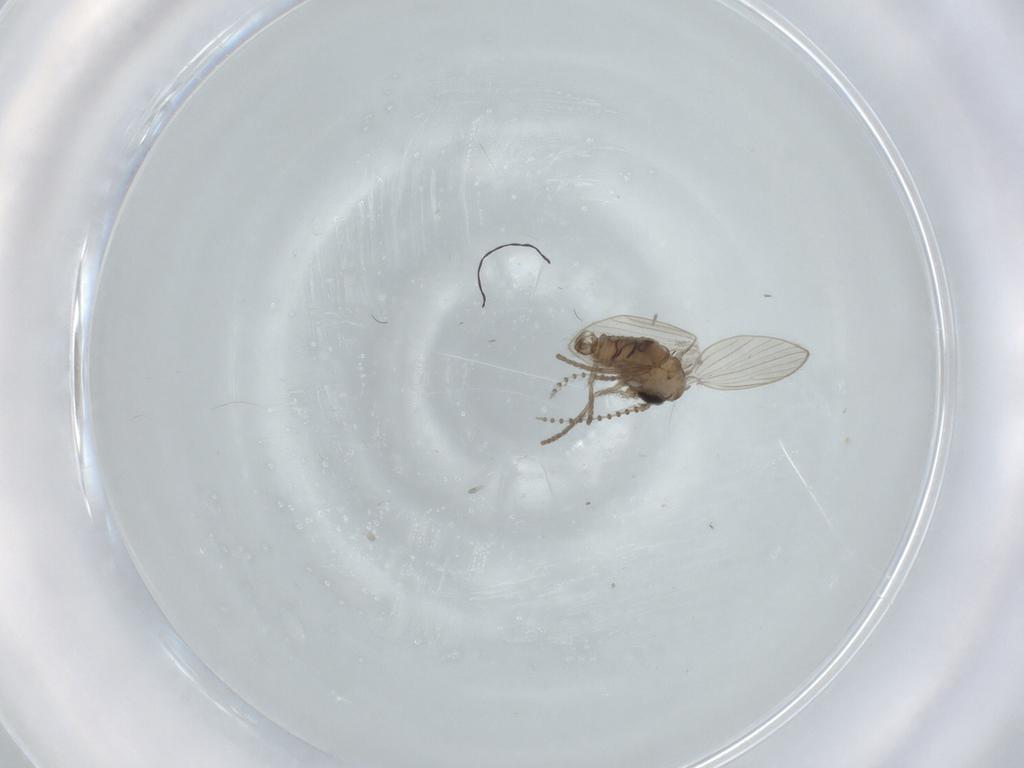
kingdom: Animalia
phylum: Arthropoda
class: Insecta
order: Diptera
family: Psychodidae
